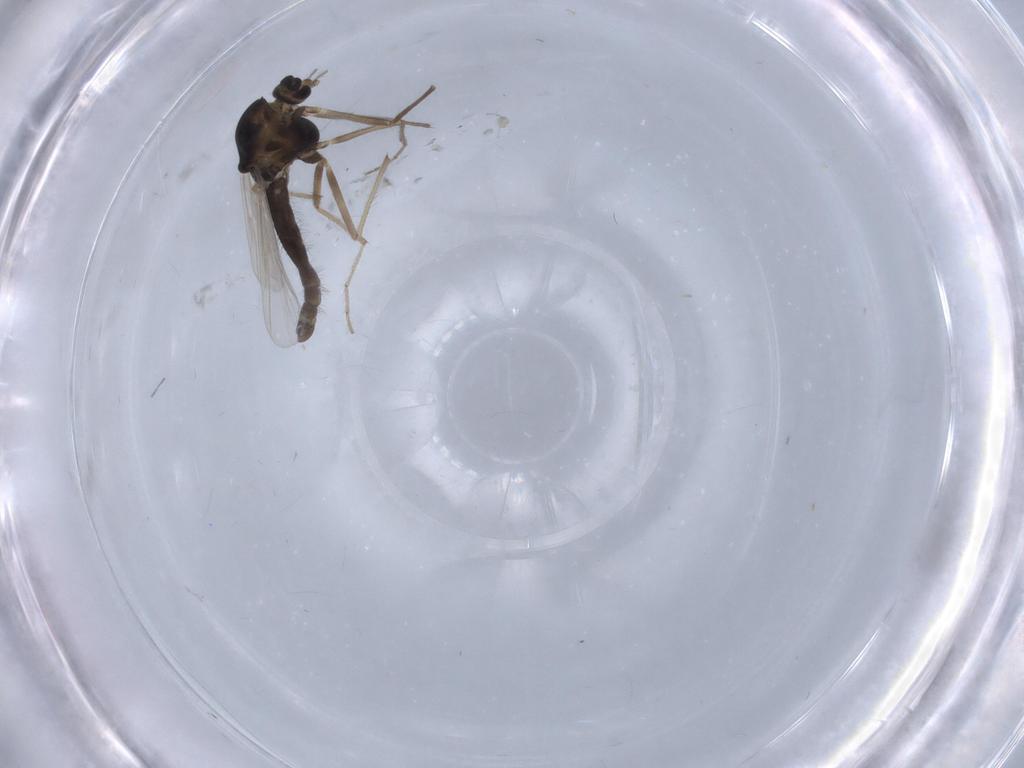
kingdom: Animalia
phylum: Arthropoda
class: Insecta
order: Diptera
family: Chironomidae
